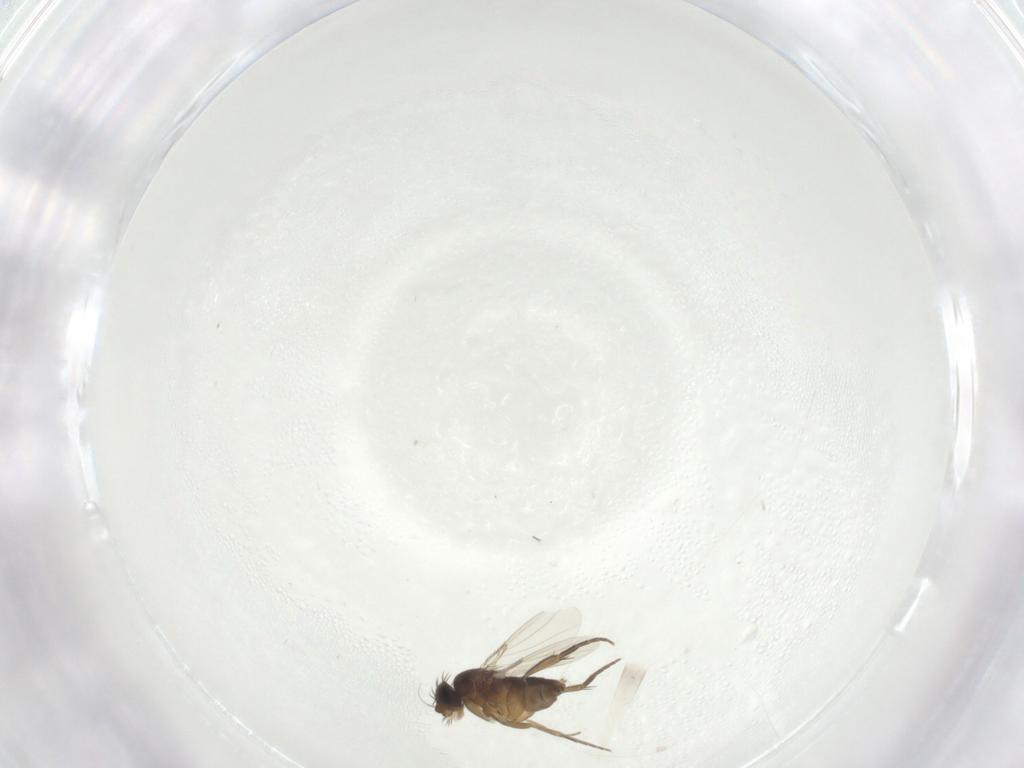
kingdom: Animalia
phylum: Arthropoda
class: Insecta
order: Diptera
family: Phoridae
